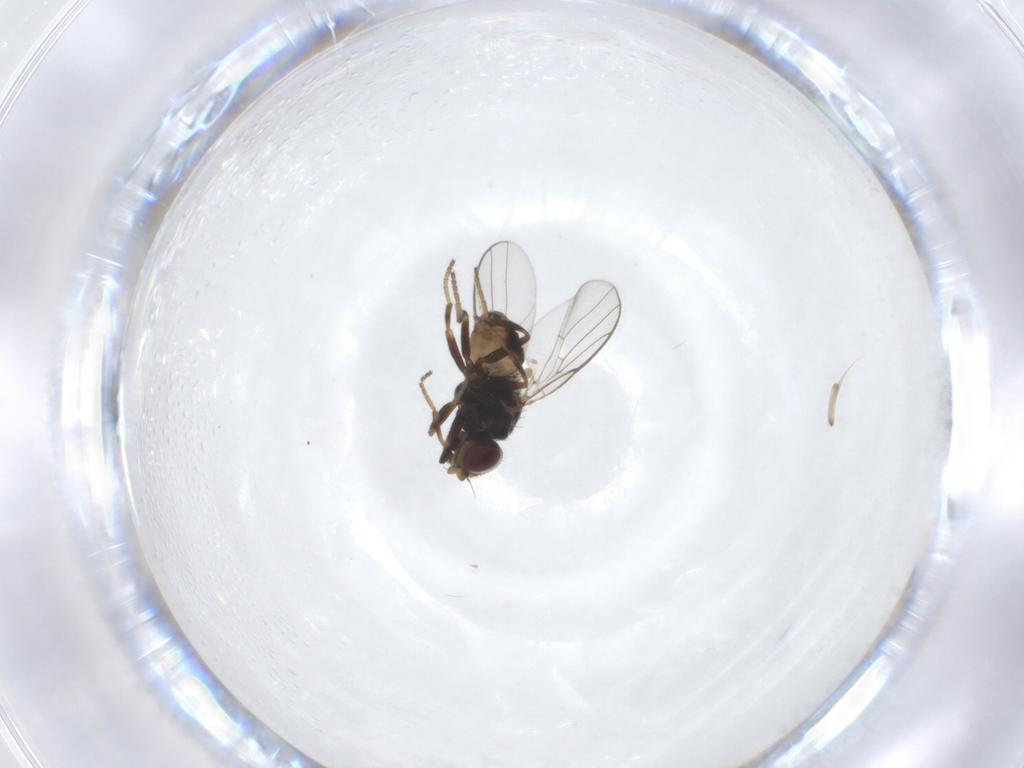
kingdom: Animalia
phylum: Arthropoda
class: Insecta
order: Diptera
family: Chloropidae
